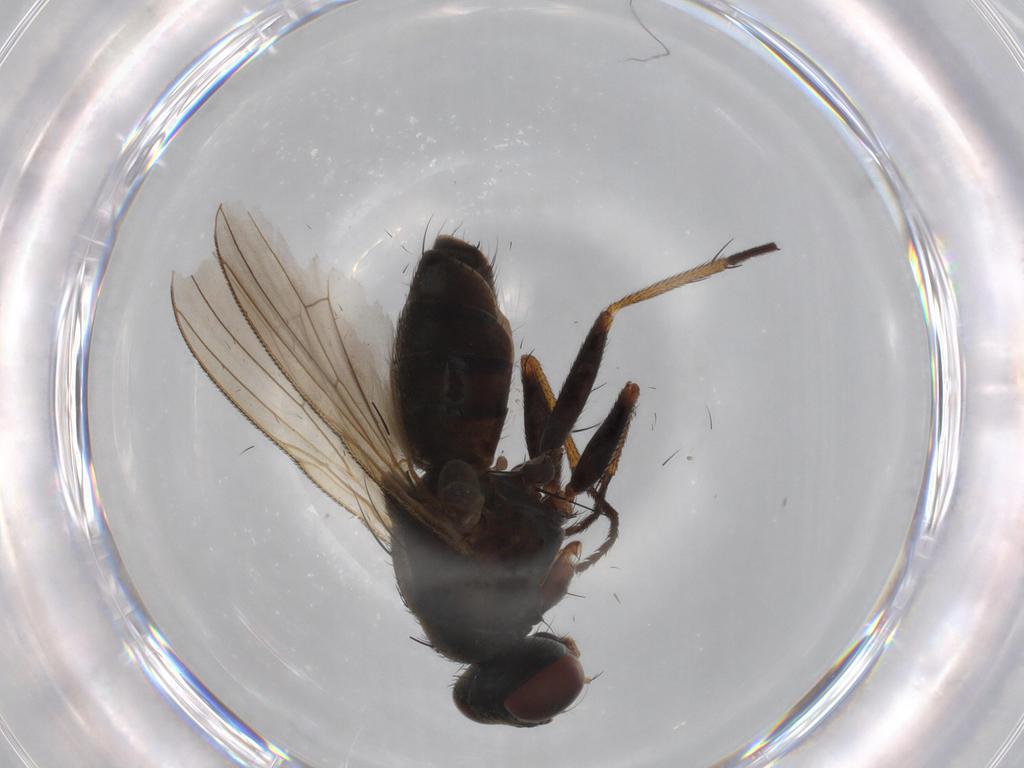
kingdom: Animalia
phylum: Arthropoda
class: Insecta
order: Diptera
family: Muscidae
